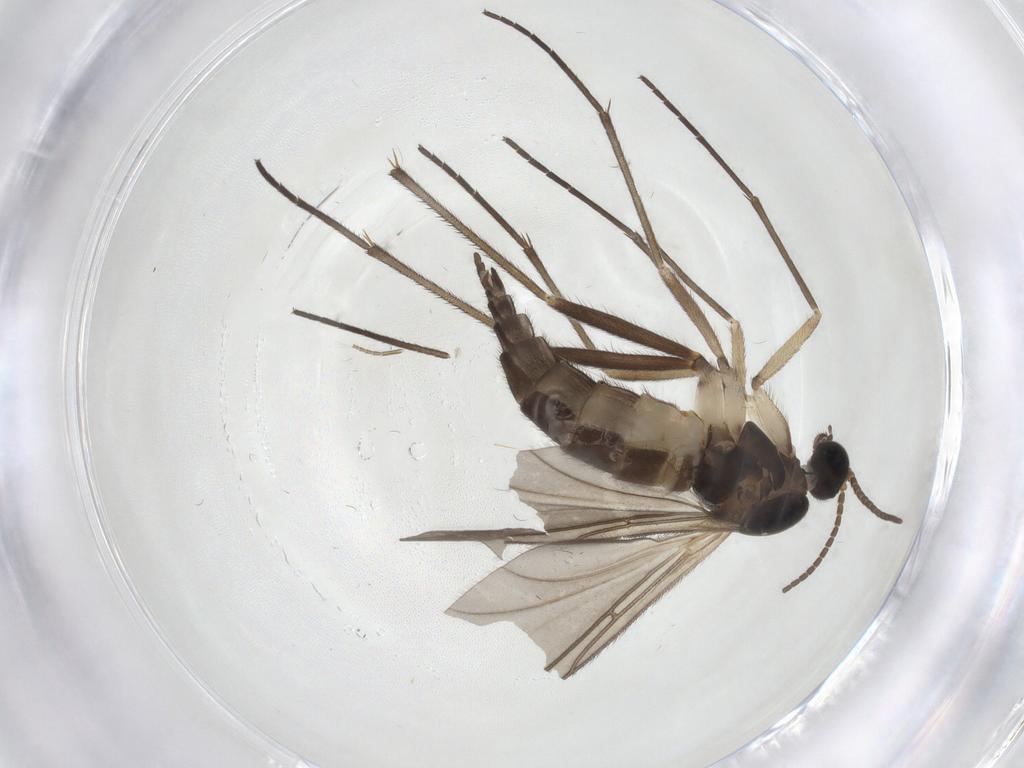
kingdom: Animalia
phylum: Arthropoda
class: Insecta
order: Diptera
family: Sciaridae
